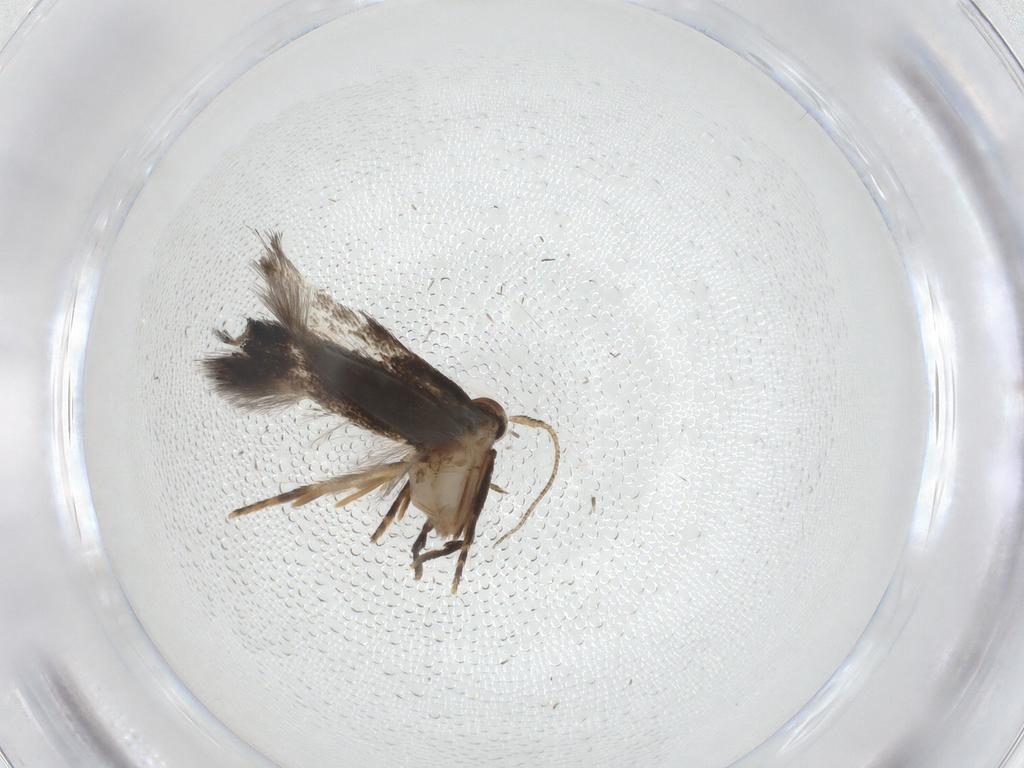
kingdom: Animalia
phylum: Arthropoda
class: Insecta
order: Lepidoptera
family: Elachistidae
